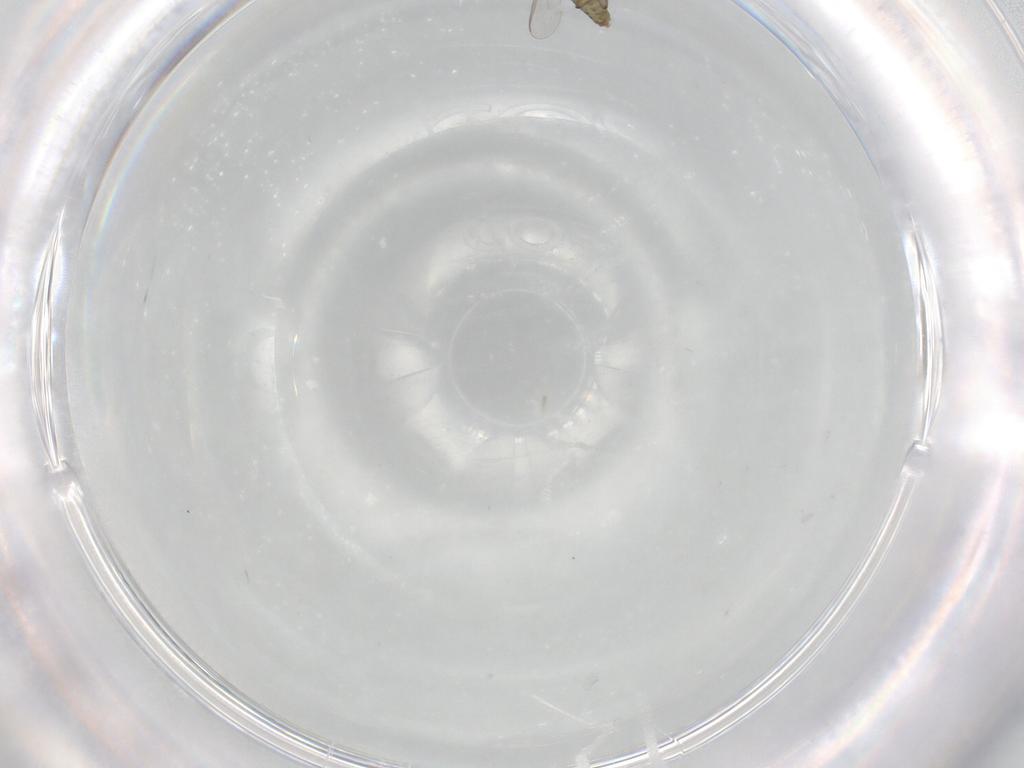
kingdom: Animalia
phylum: Arthropoda
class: Insecta
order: Diptera
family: Chironomidae
